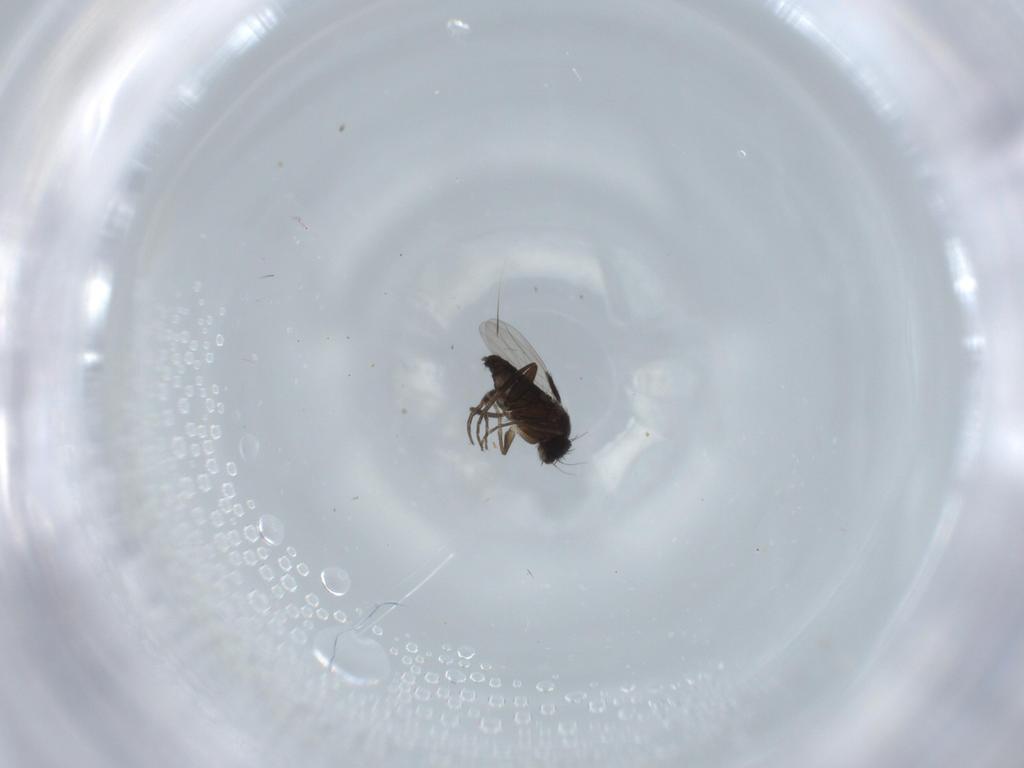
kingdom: Animalia
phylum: Arthropoda
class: Insecta
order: Diptera
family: Phoridae
